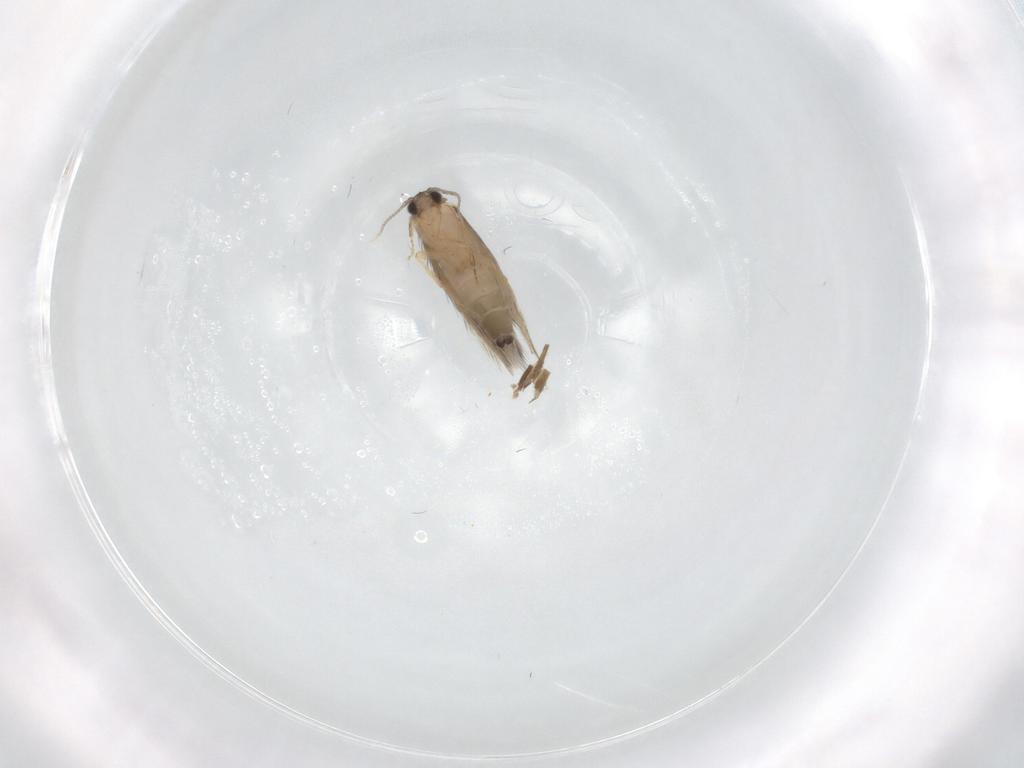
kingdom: Animalia
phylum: Arthropoda
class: Insecta
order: Trichoptera
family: Hydroptilidae
